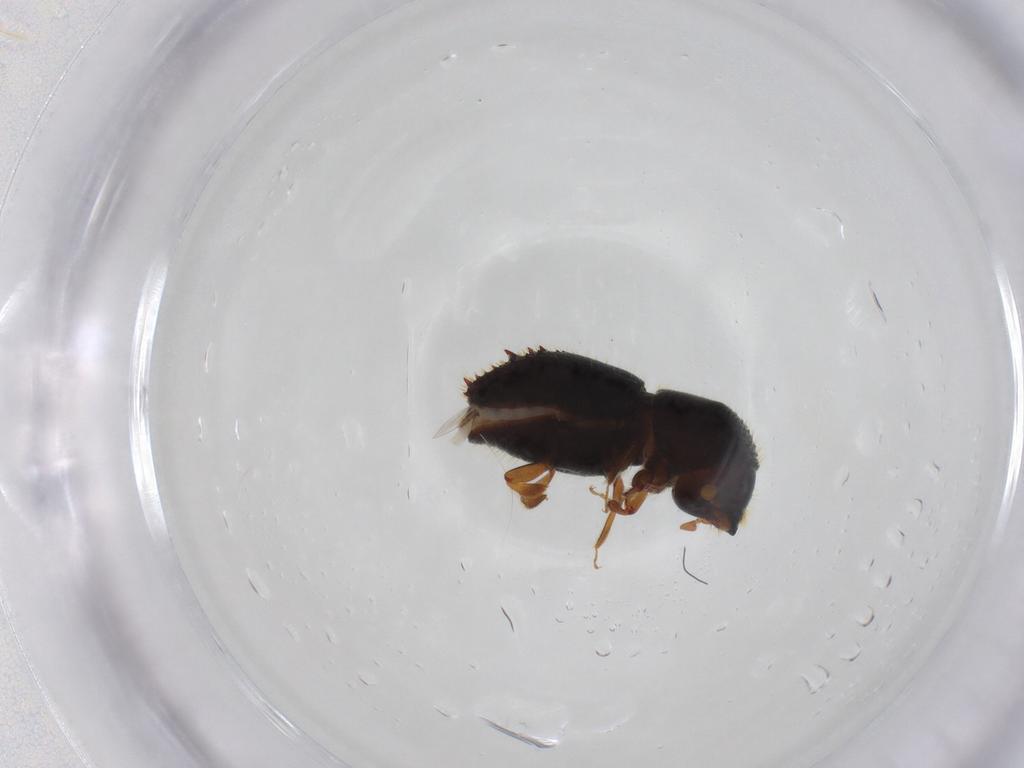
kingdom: Animalia
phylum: Arthropoda
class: Insecta
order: Coleoptera
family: Curculionidae
